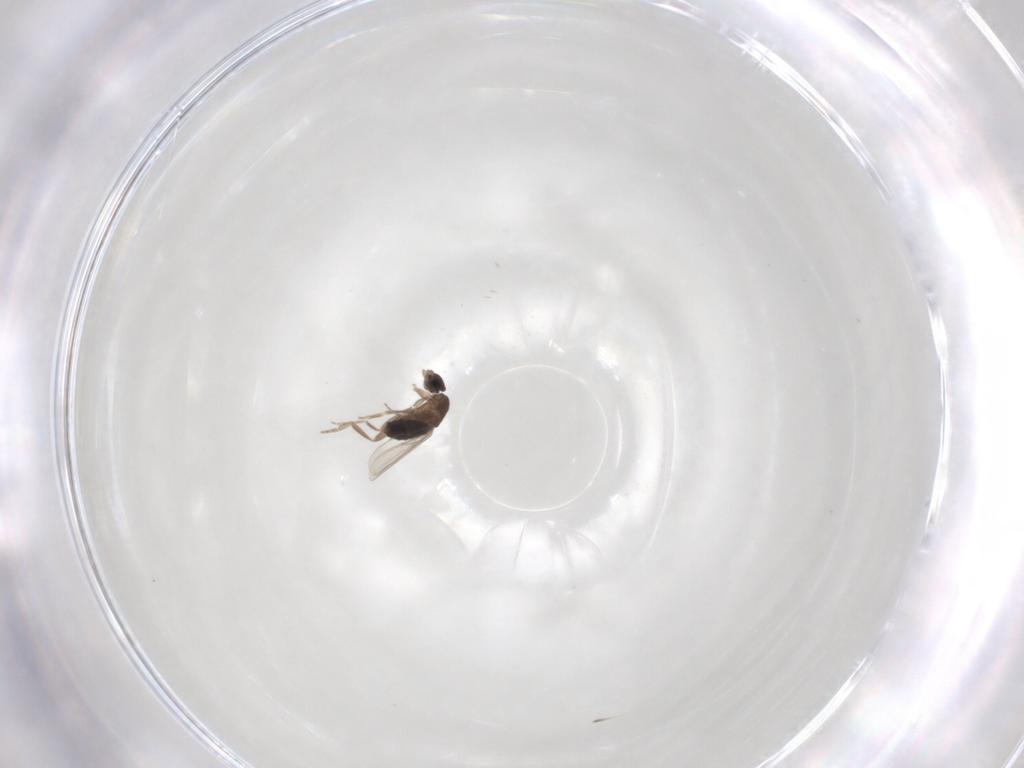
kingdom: Animalia
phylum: Arthropoda
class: Insecta
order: Diptera
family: Phoridae
